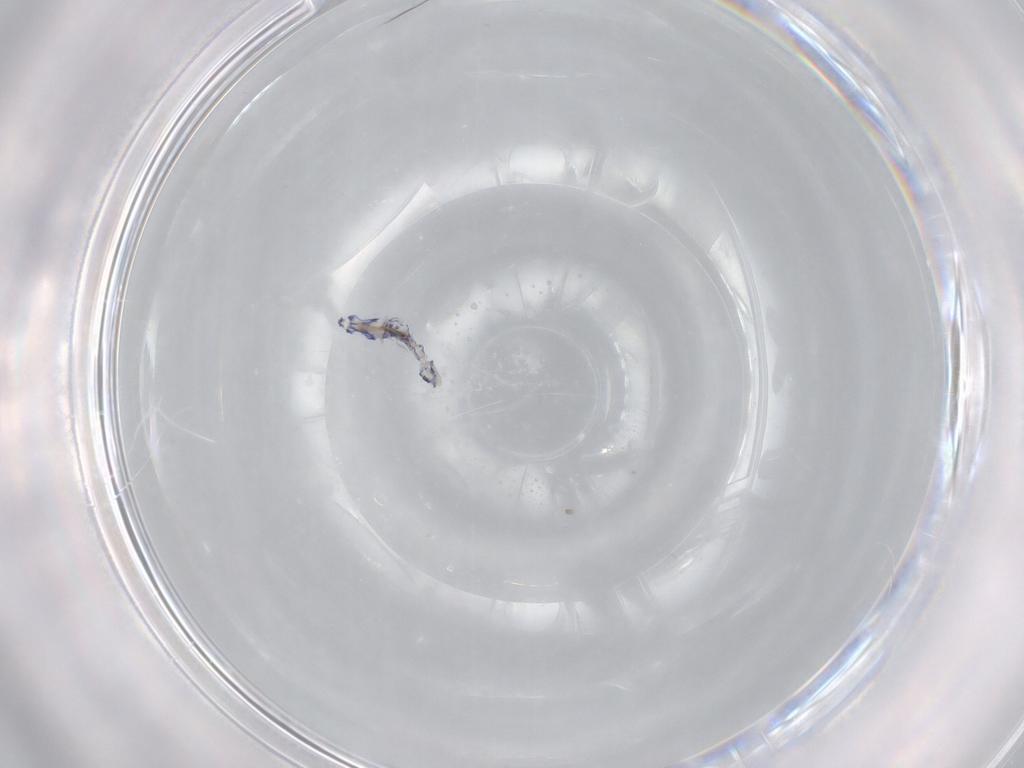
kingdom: Animalia
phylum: Arthropoda
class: Collembola
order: Entomobryomorpha
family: Entomobryidae
